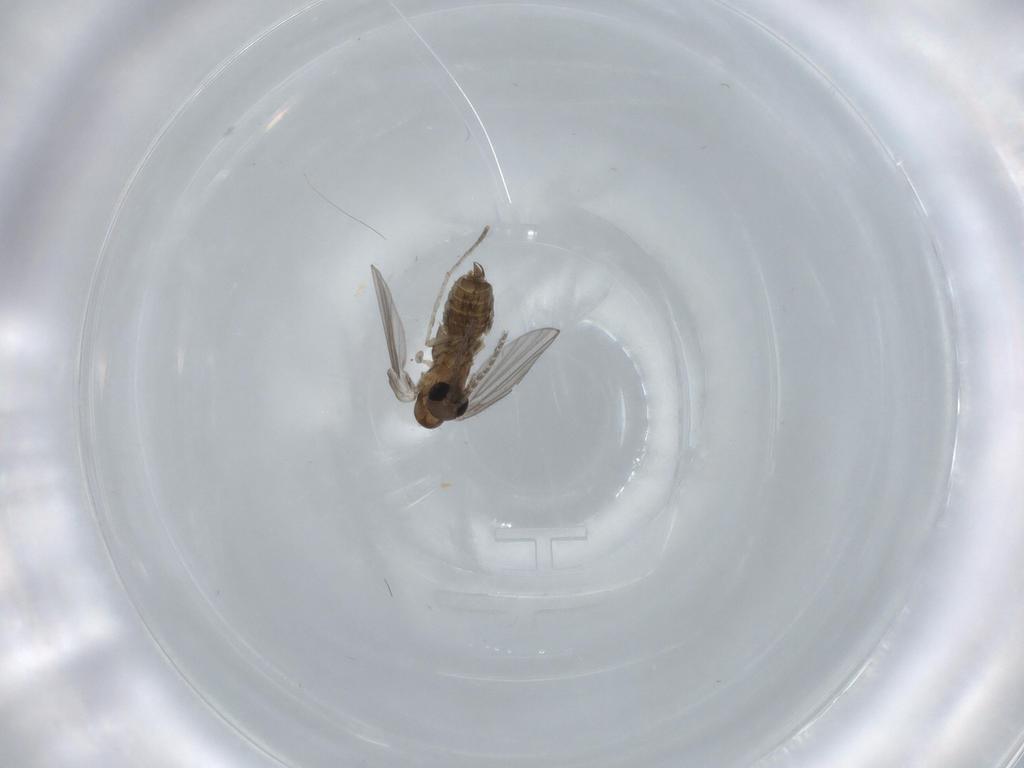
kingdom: Animalia
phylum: Arthropoda
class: Insecta
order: Diptera
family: Psychodidae
